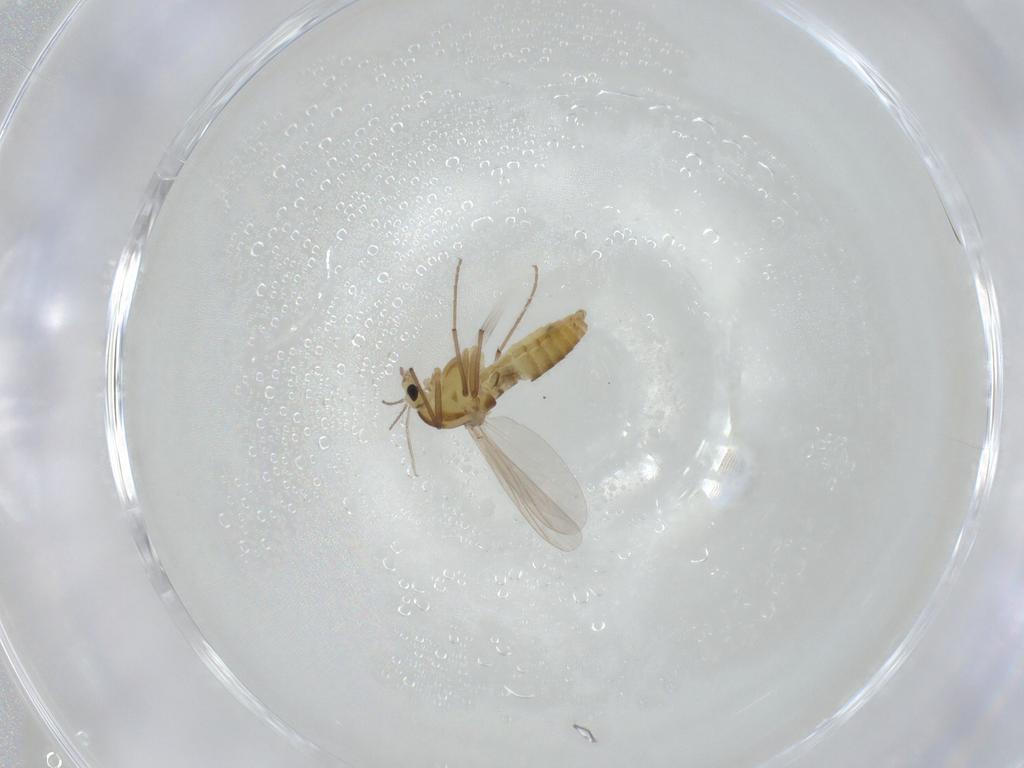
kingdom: Animalia
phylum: Arthropoda
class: Insecta
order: Diptera
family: Chironomidae
